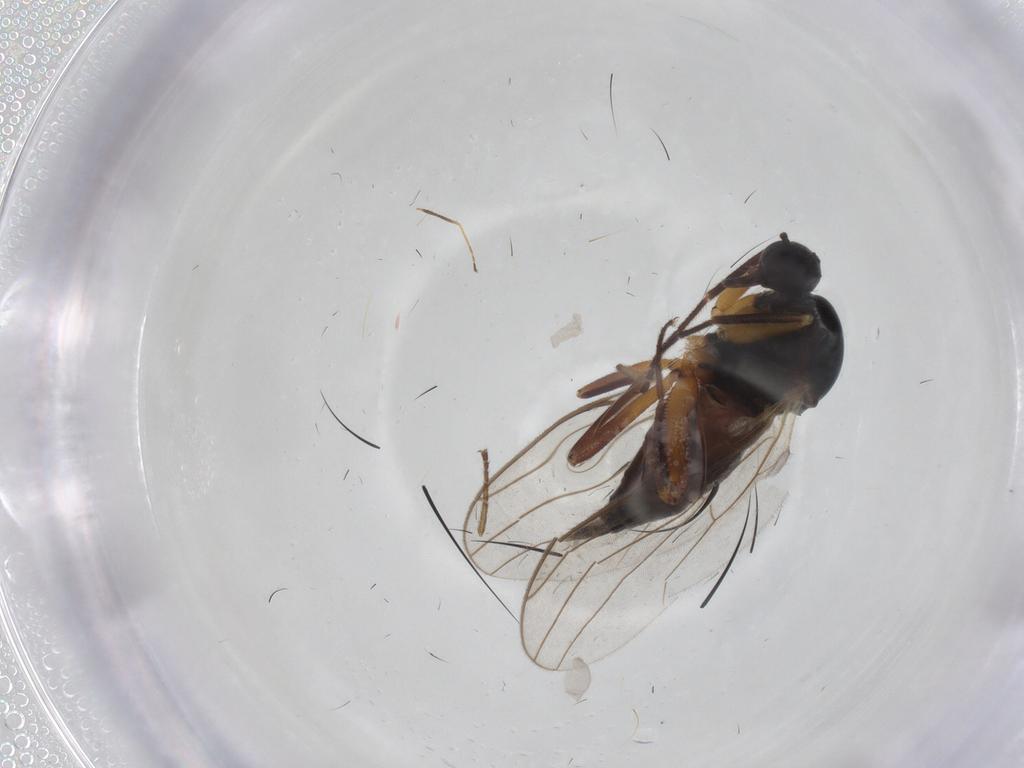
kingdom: Animalia
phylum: Arthropoda
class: Insecta
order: Diptera
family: Hybotidae
